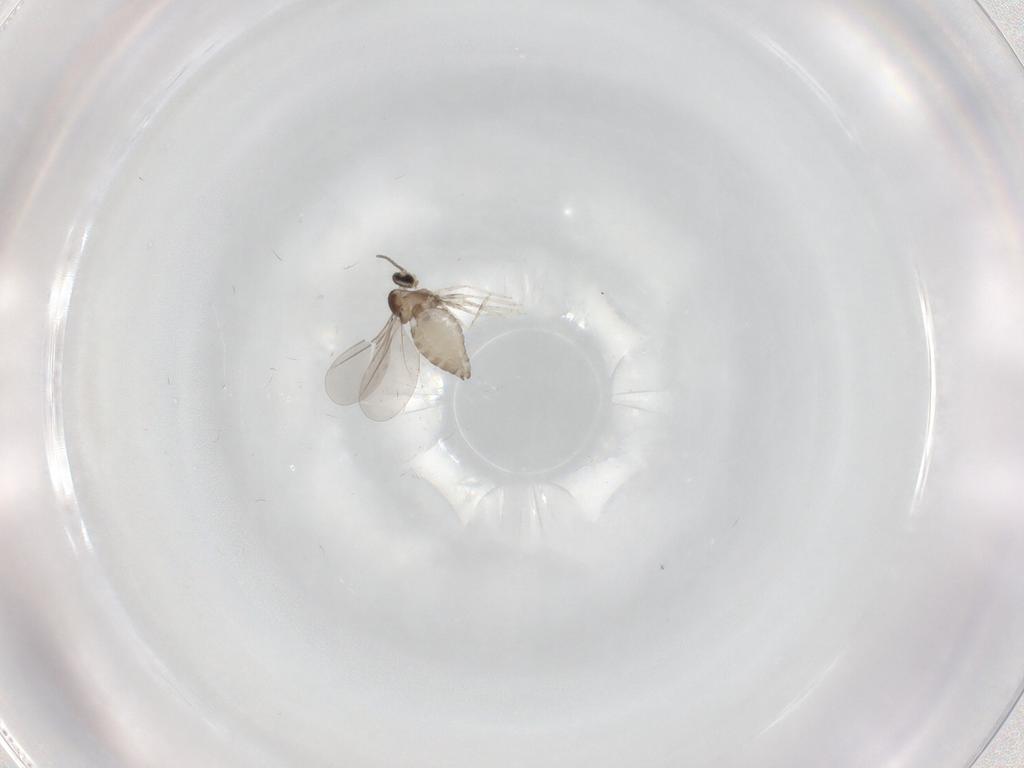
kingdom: Animalia
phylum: Arthropoda
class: Insecta
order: Diptera
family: Cecidomyiidae
